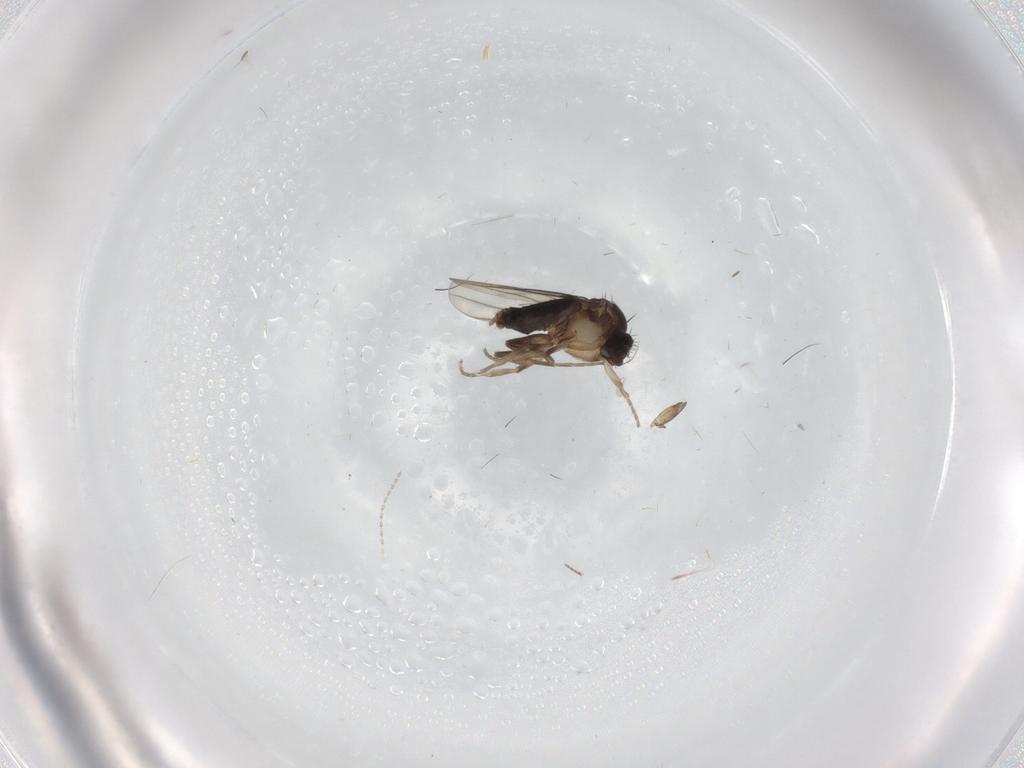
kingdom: Animalia
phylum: Arthropoda
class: Insecta
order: Diptera
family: Phoridae
